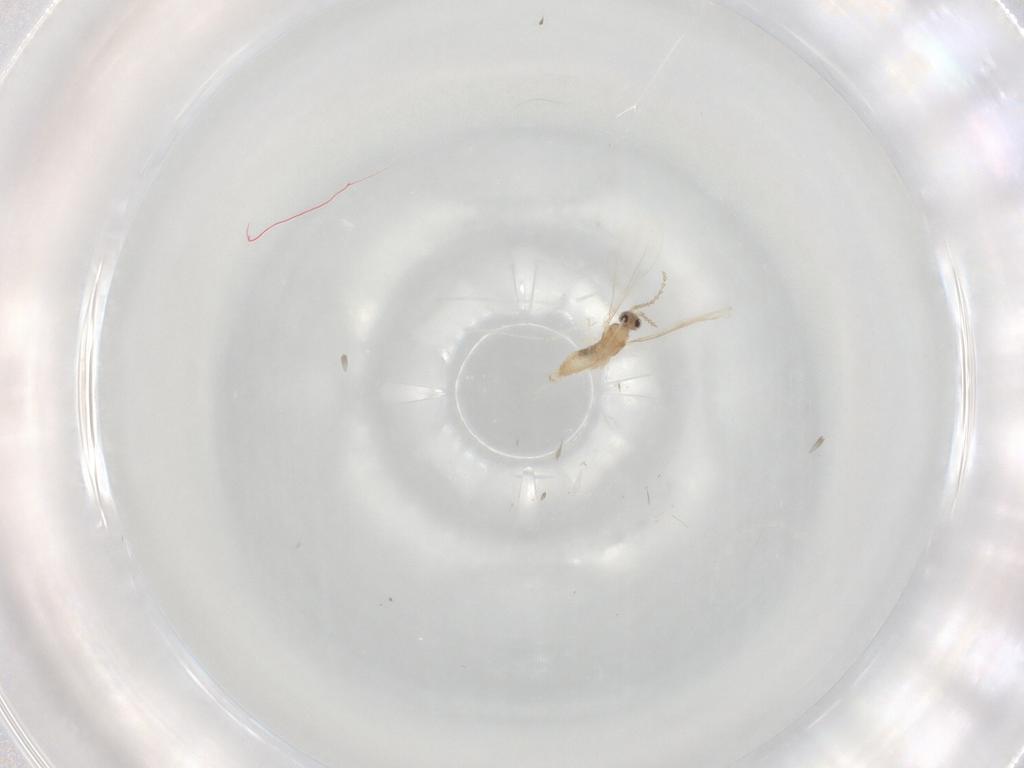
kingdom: Animalia
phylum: Arthropoda
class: Insecta
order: Diptera
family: Cecidomyiidae
